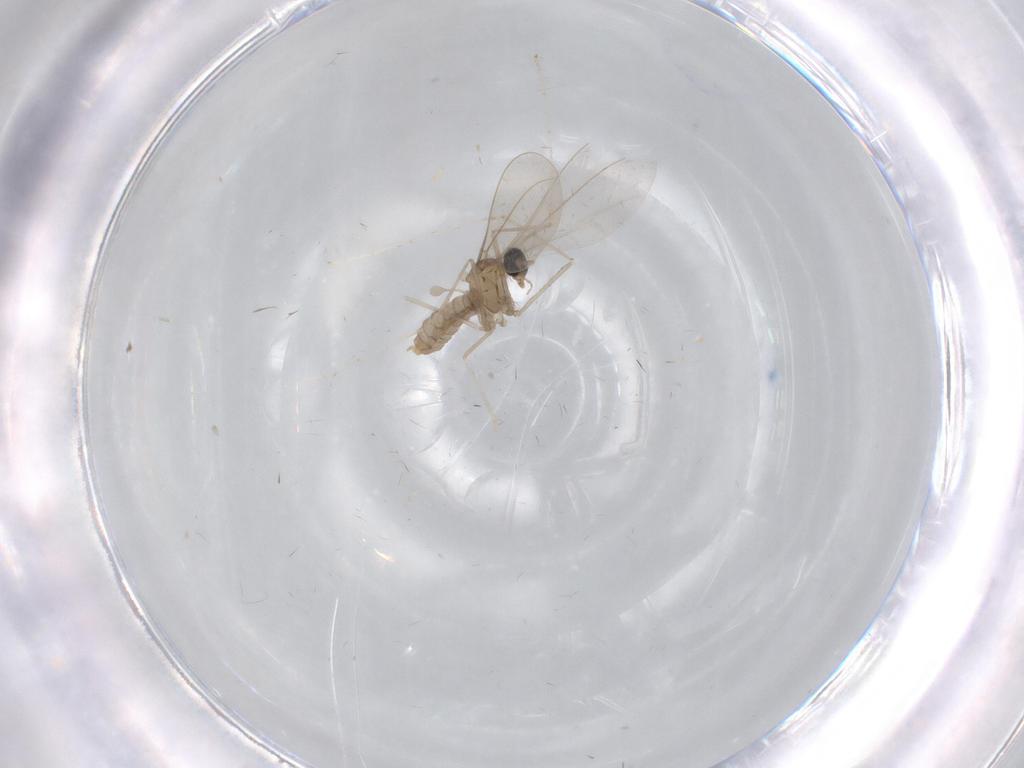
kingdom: Animalia
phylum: Arthropoda
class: Insecta
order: Diptera
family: Cecidomyiidae
